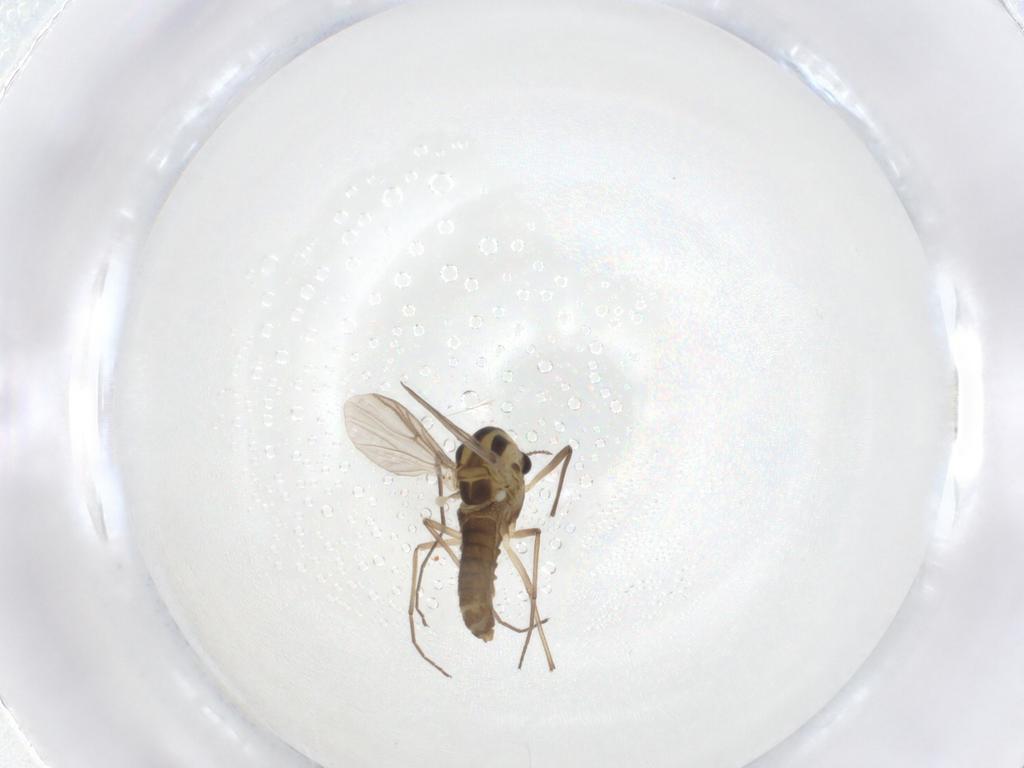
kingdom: Animalia
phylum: Arthropoda
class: Insecta
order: Diptera
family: Chironomidae
